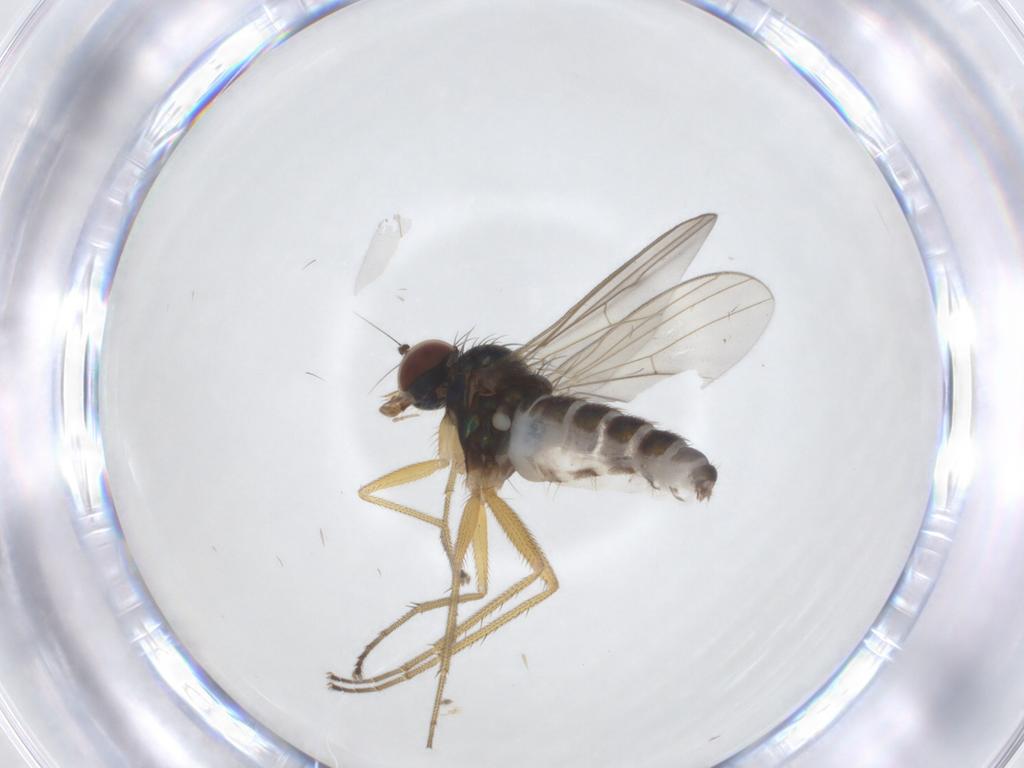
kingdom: Animalia
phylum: Arthropoda
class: Insecta
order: Diptera
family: Dolichopodidae
